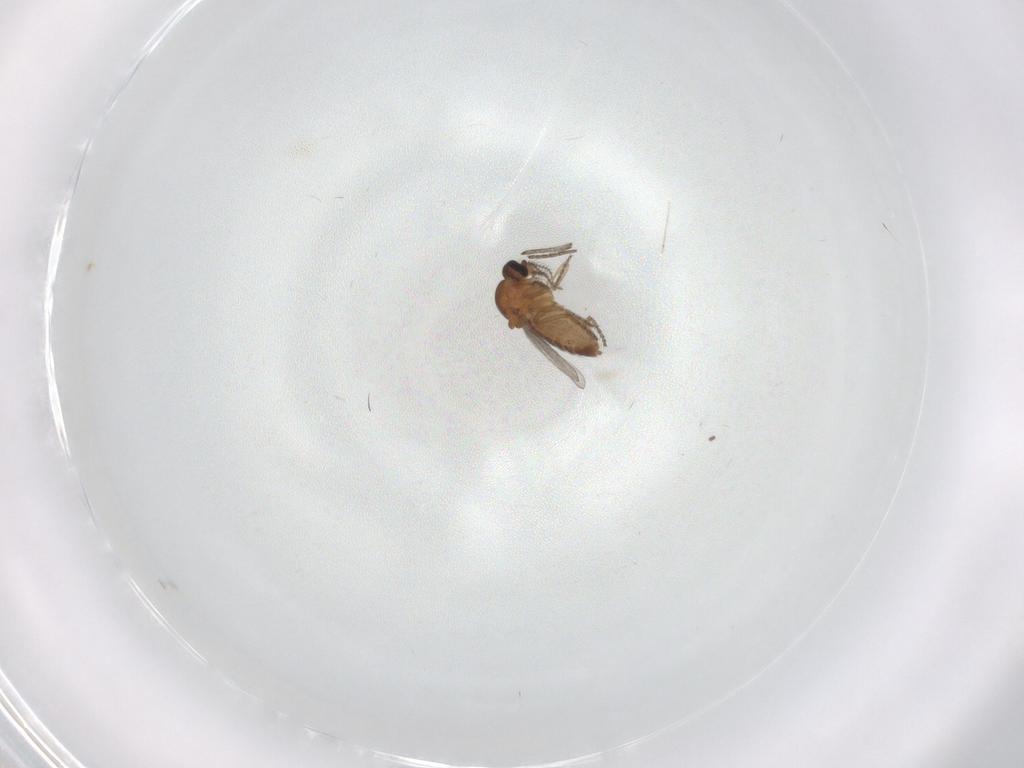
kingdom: Animalia
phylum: Arthropoda
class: Insecta
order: Diptera
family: Ceratopogonidae
